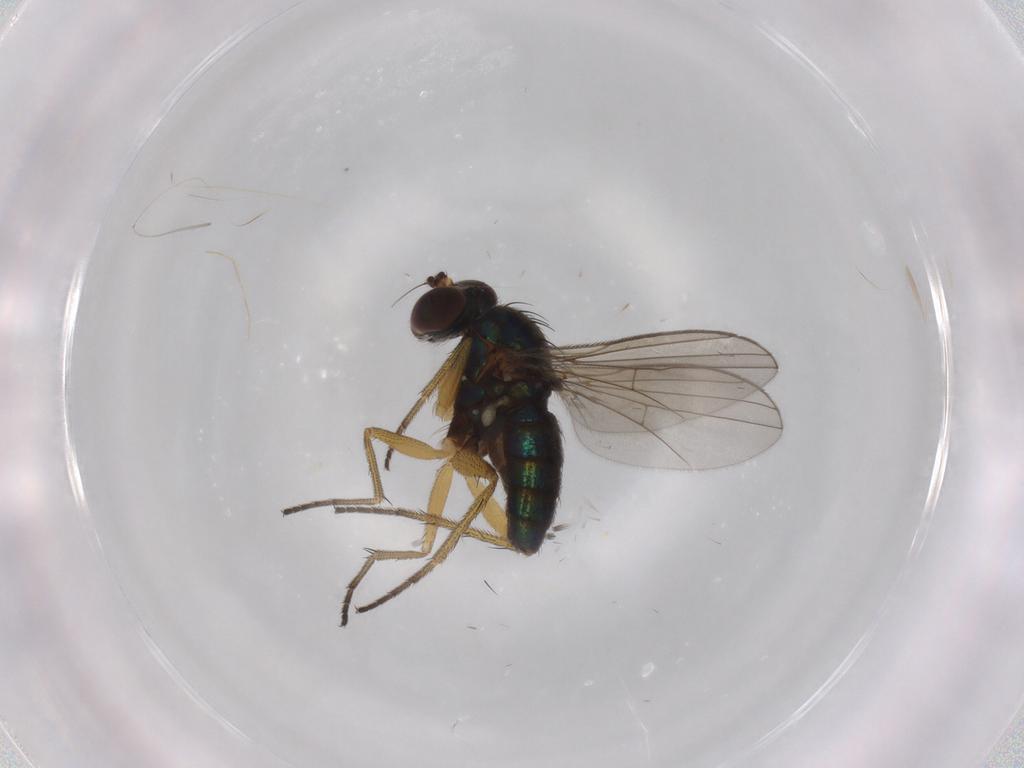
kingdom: Animalia
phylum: Arthropoda
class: Insecta
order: Diptera
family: Dolichopodidae
